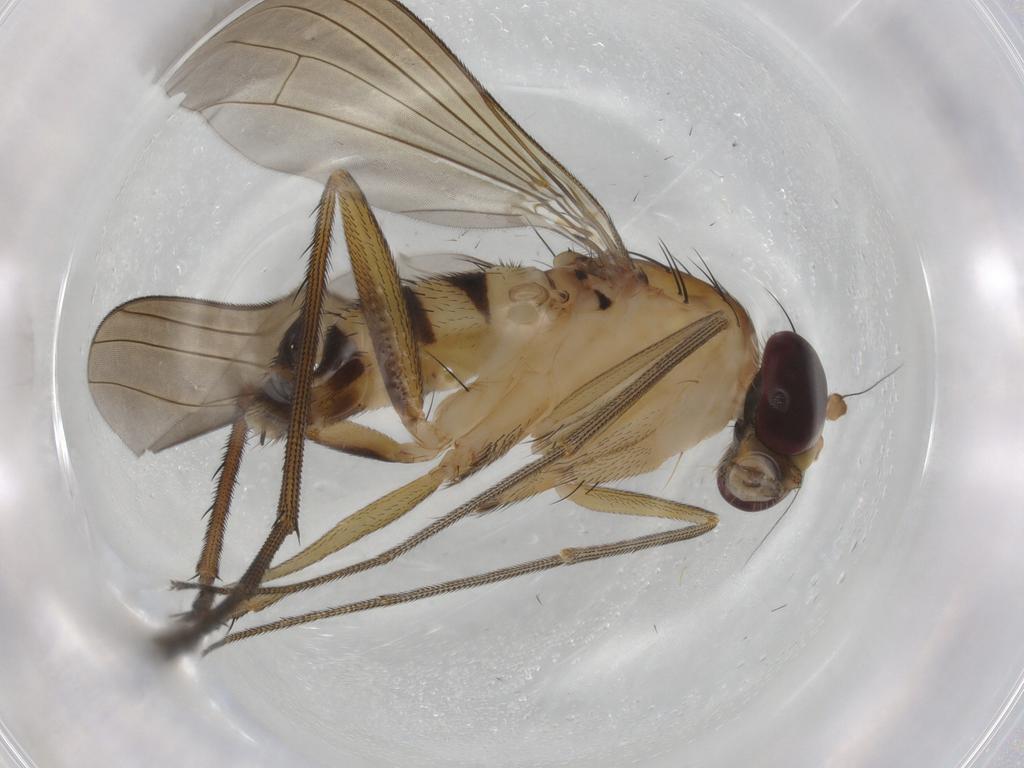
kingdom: Animalia
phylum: Arthropoda
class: Insecta
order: Diptera
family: Dolichopodidae
